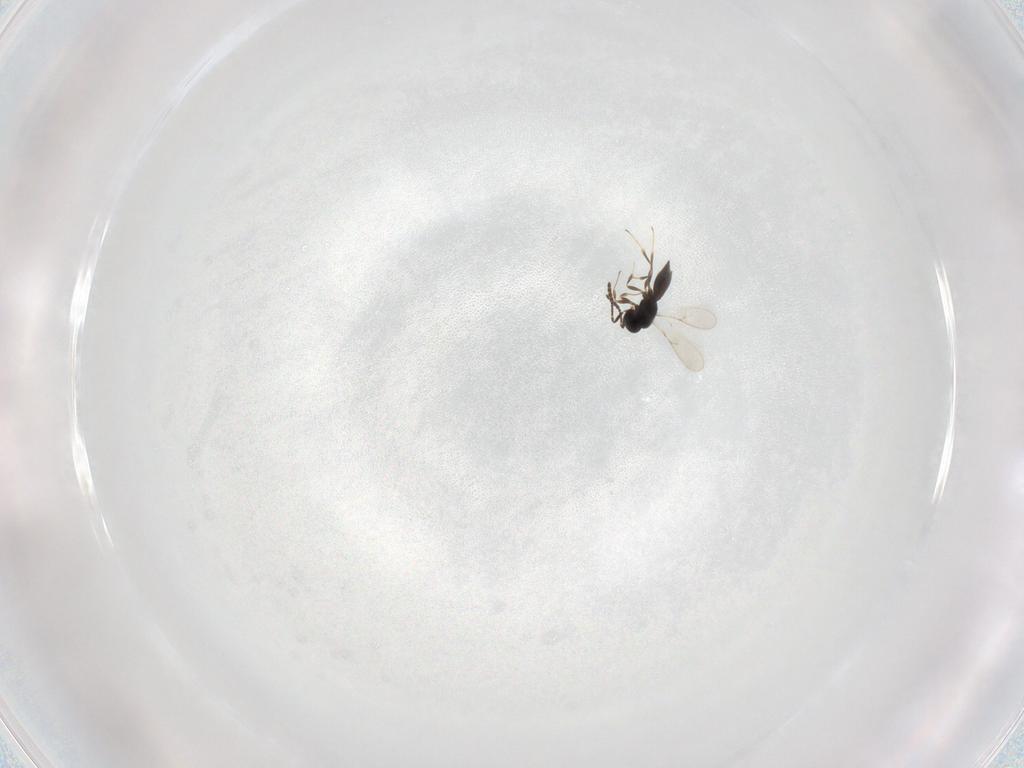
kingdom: Animalia
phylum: Arthropoda
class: Insecta
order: Hymenoptera
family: Scelionidae
